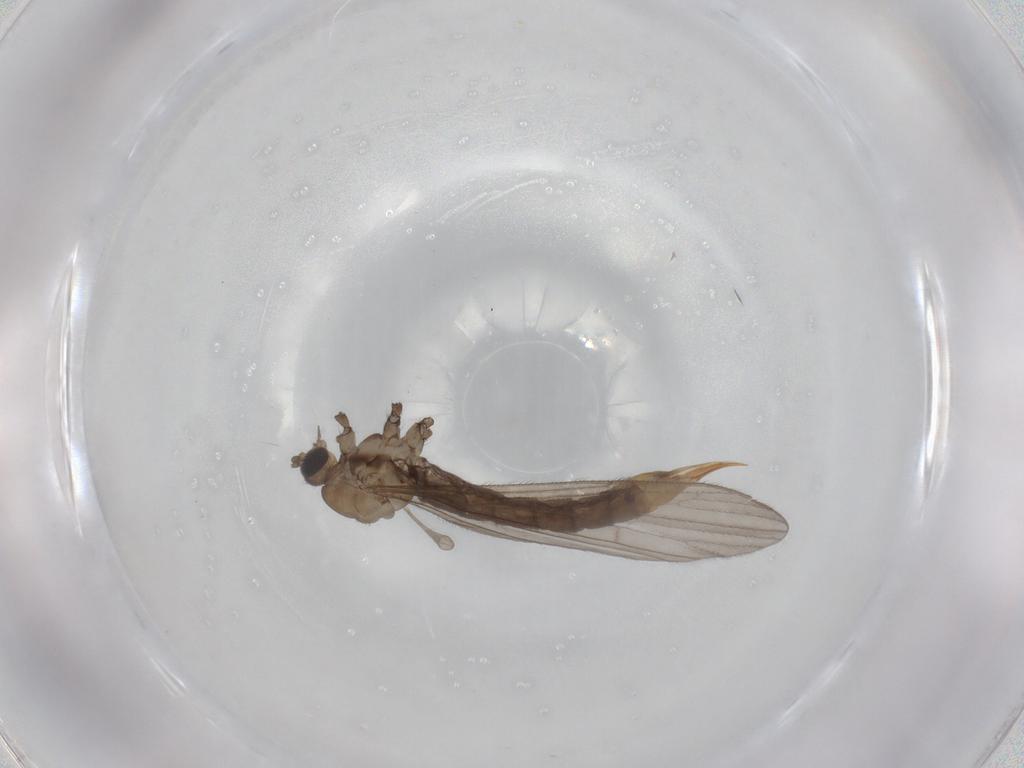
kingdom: Animalia
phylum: Arthropoda
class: Insecta
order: Diptera
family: Limoniidae
